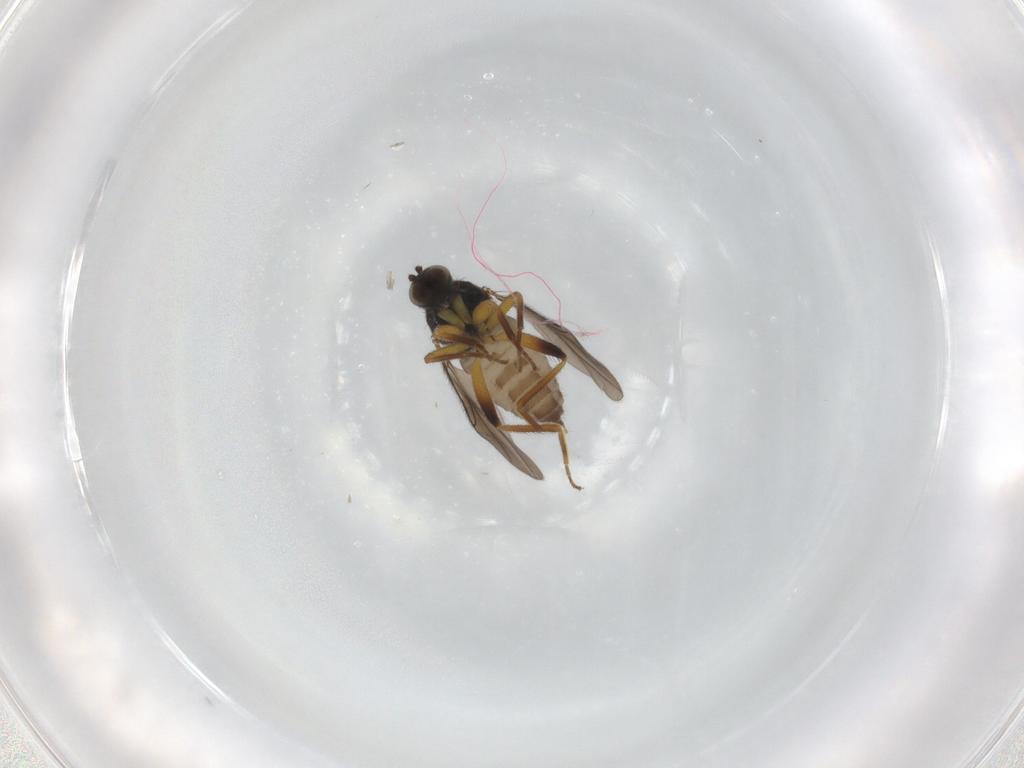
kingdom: Animalia
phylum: Arthropoda
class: Insecta
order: Diptera
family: Hybotidae
